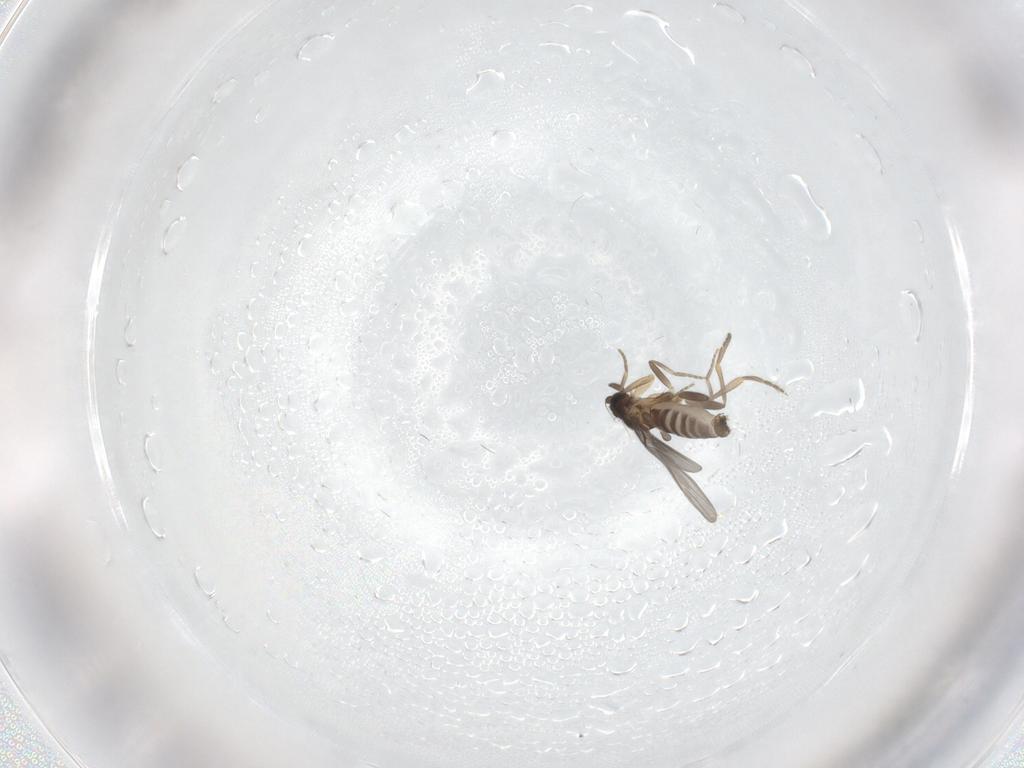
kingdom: Animalia
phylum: Arthropoda
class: Insecta
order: Diptera
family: Phoridae
